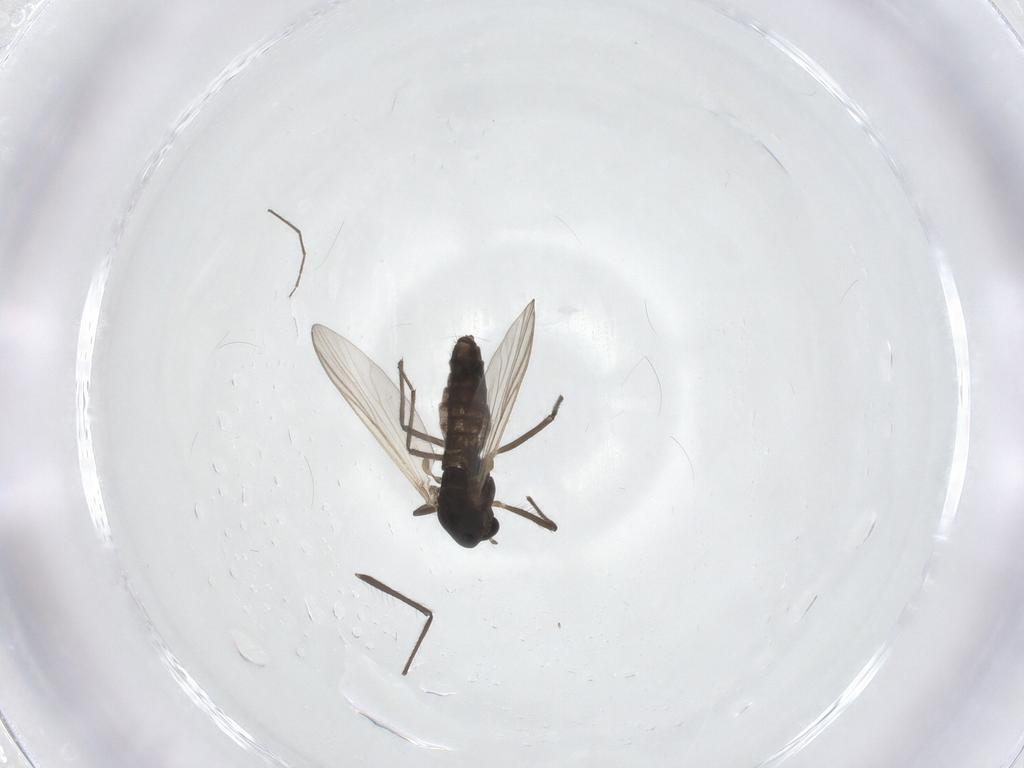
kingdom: Animalia
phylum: Arthropoda
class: Insecta
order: Diptera
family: Chironomidae
